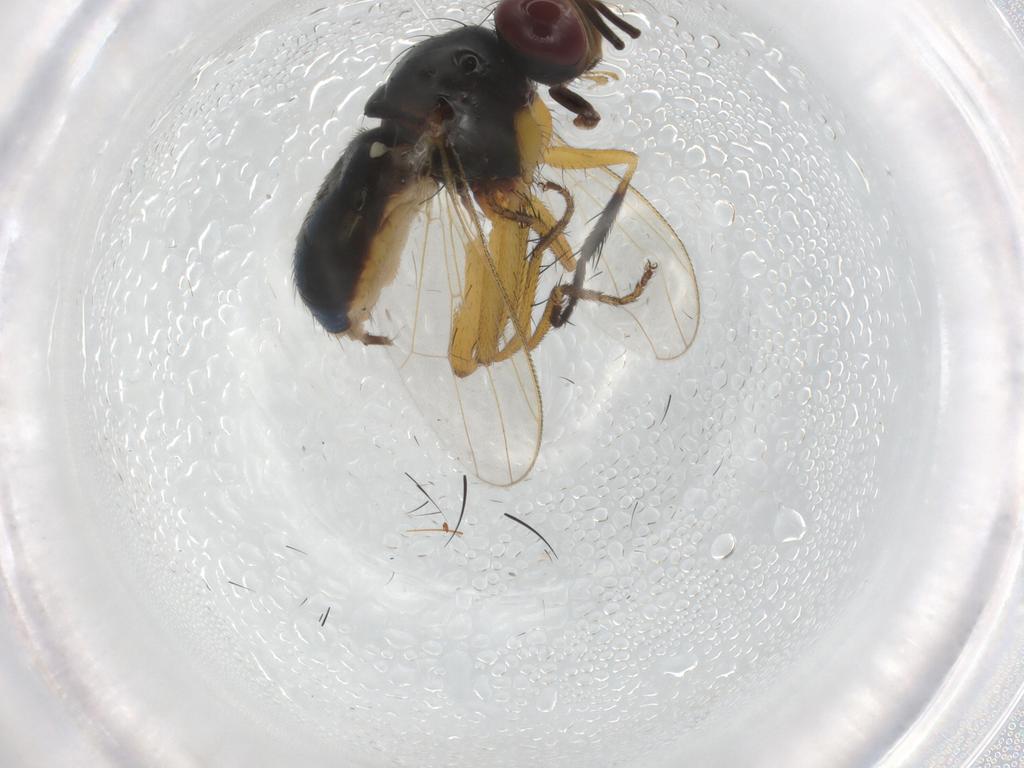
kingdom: Animalia
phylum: Arthropoda
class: Insecta
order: Diptera
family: Muscidae
